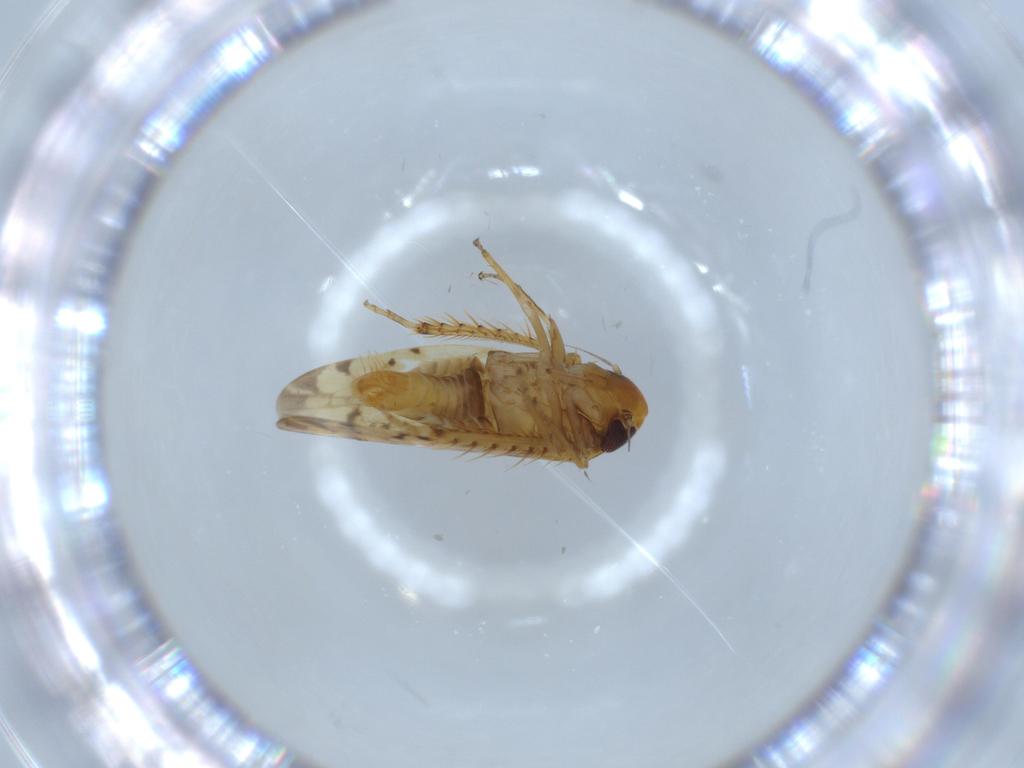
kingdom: Animalia
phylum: Arthropoda
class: Insecta
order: Hemiptera
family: Cicadellidae
